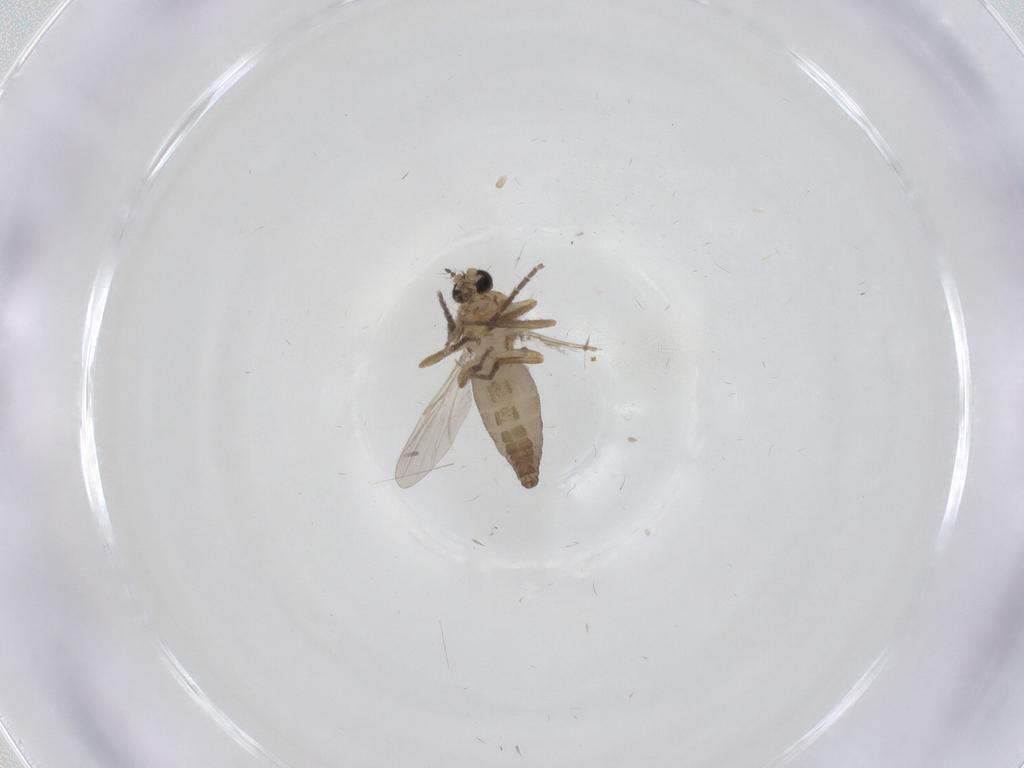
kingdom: Animalia
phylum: Arthropoda
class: Insecta
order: Diptera
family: Ceratopogonidae
